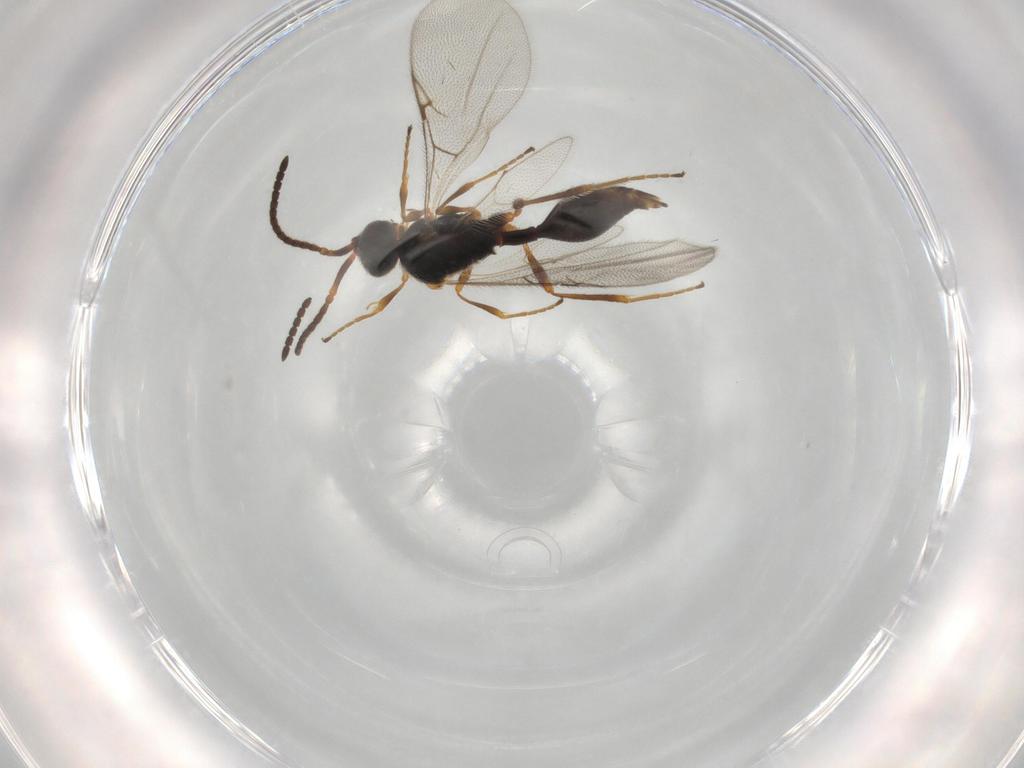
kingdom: Animalia
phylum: Arthropoda
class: Insecta
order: Hymenoptera
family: Diapriidae
